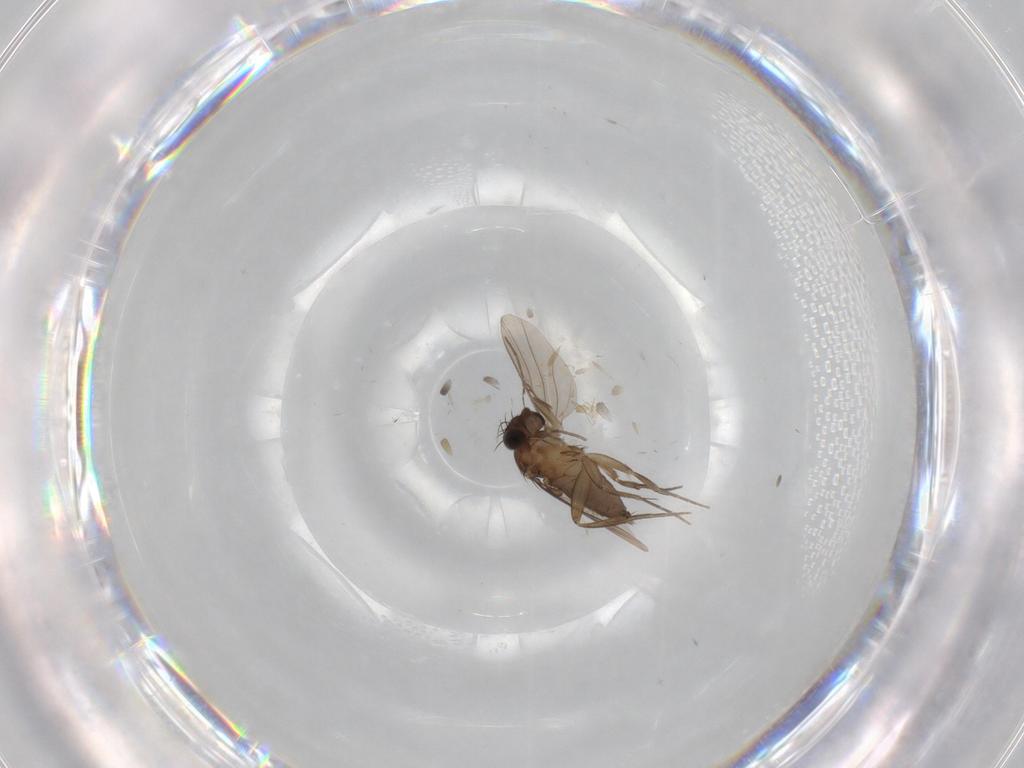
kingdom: Animalia
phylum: Arthropoda
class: Insecta
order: Diptera
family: Phoridae
